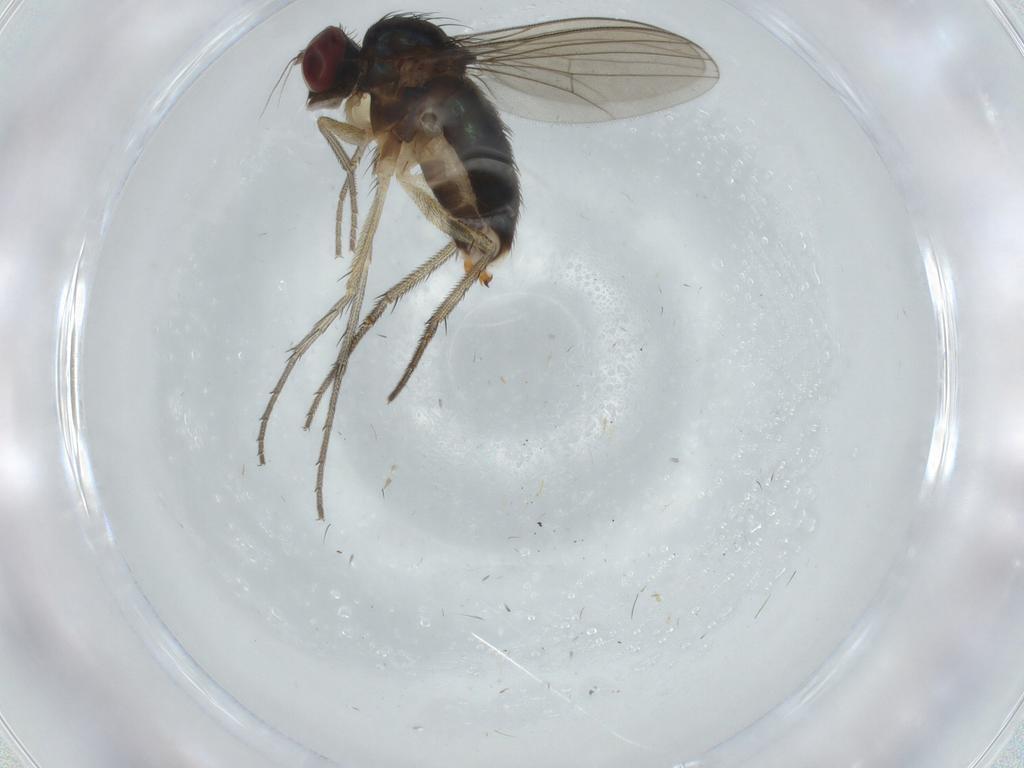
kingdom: Animalia
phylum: Arthropoda
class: Insecta
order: Diptera
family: Dolichopodidae
